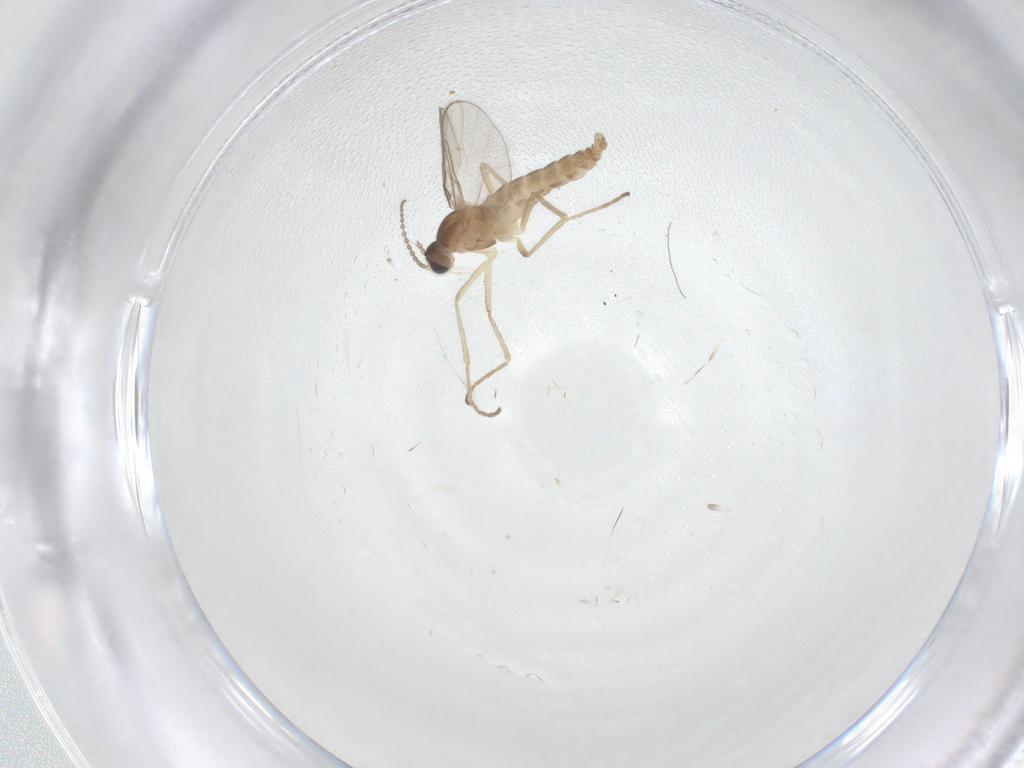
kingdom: Animalia
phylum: Arthropoda
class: Insecta
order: Diptera
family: Cecidomyiidae
